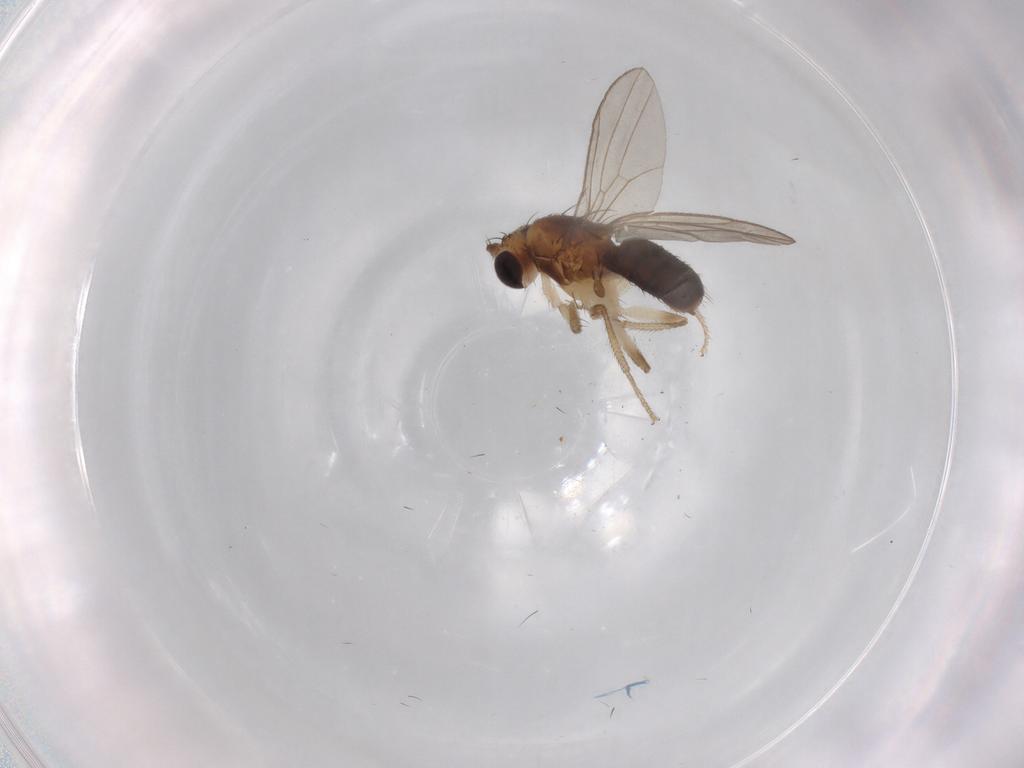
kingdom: Animalia
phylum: Arthropoda
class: Insecta
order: Diptera
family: Drosophilidae
